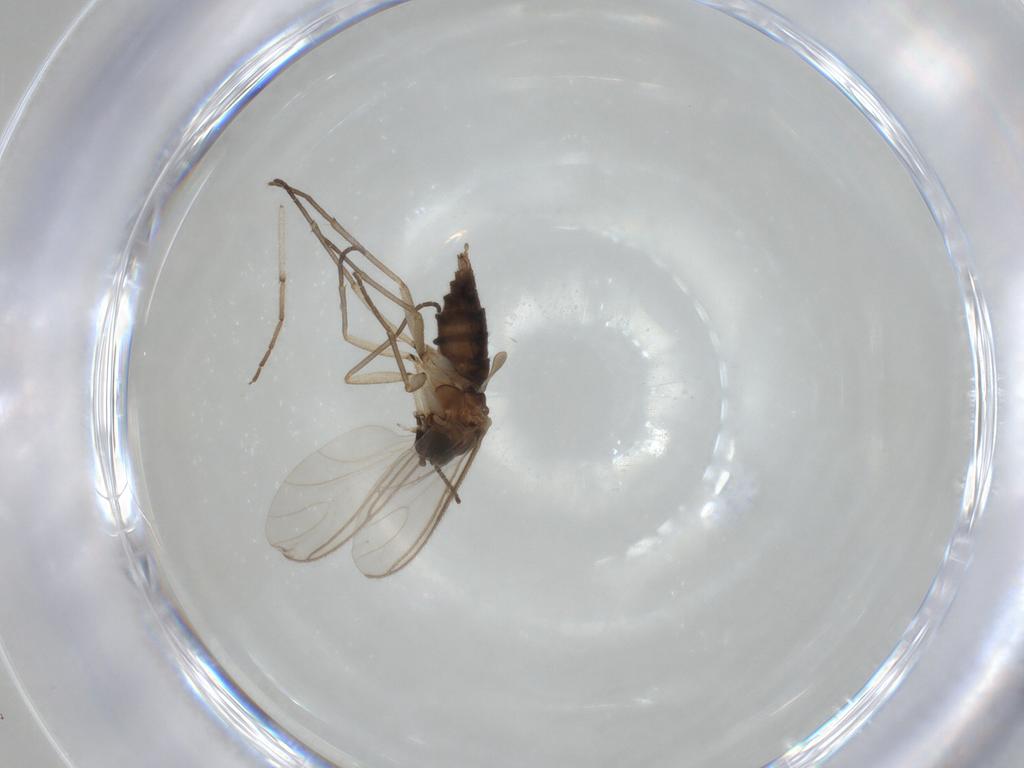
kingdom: Animalia
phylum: Arthropoda
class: Insecta
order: Diptera
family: Sciaridae
